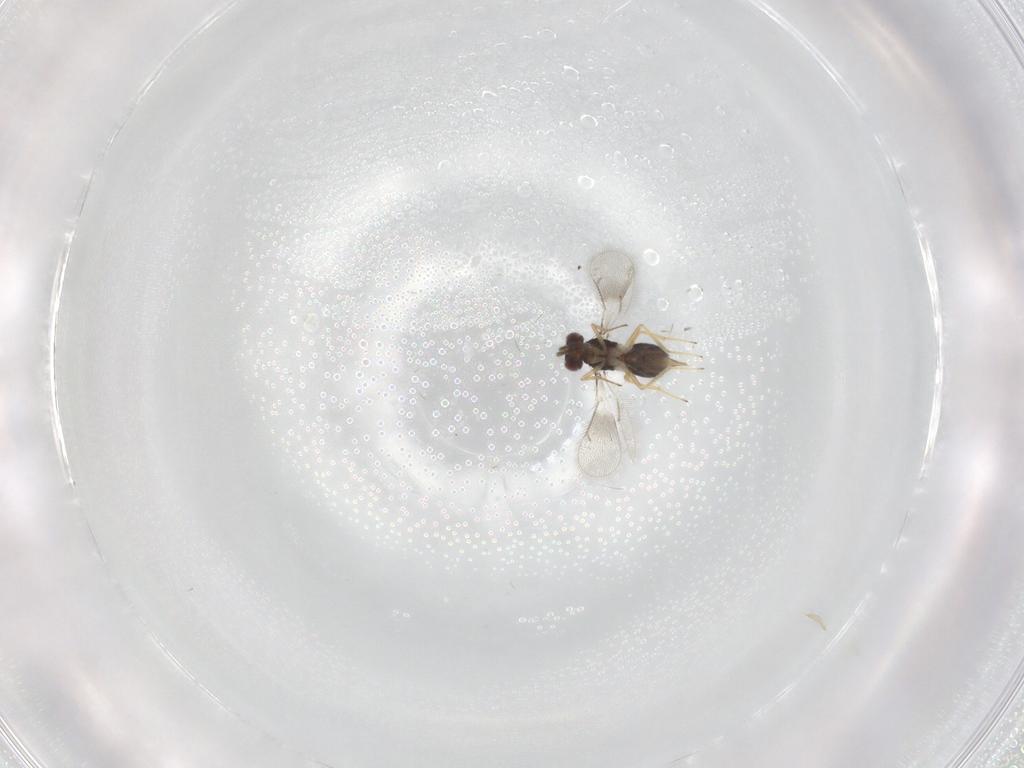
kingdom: Animalia
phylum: Arthropoda
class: Insecta
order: Hymenoptera
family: Eulophidae
